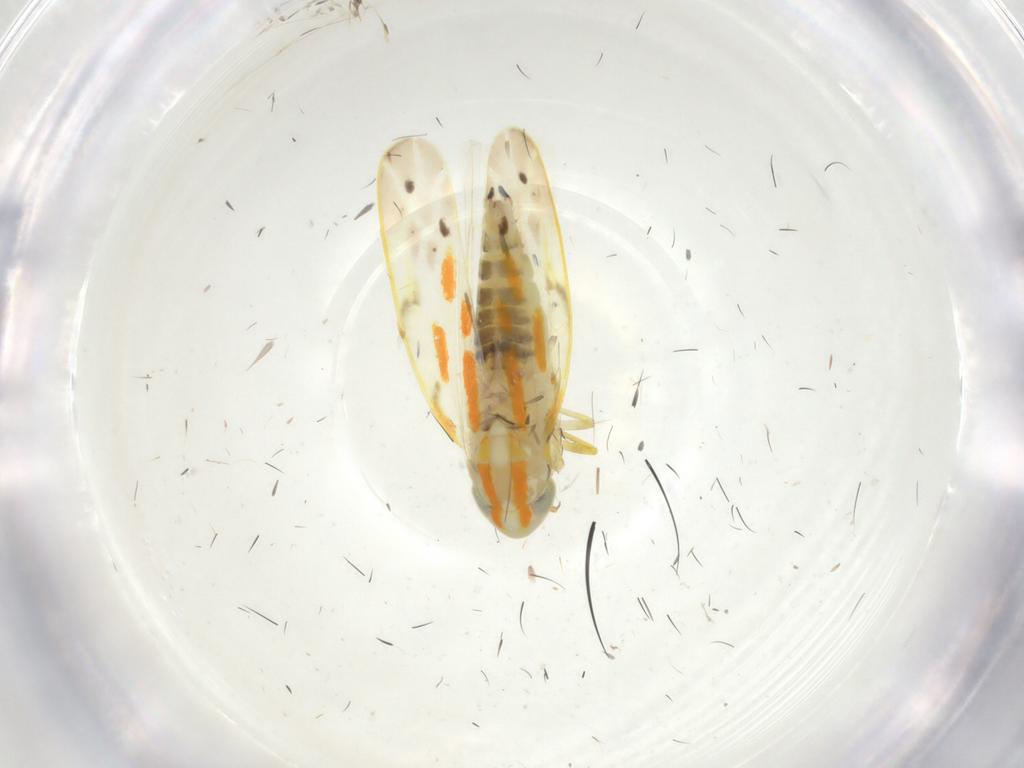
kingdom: Animalia
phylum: Arthropoda
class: Insecta
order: Hemiptera
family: Cicadellidae
